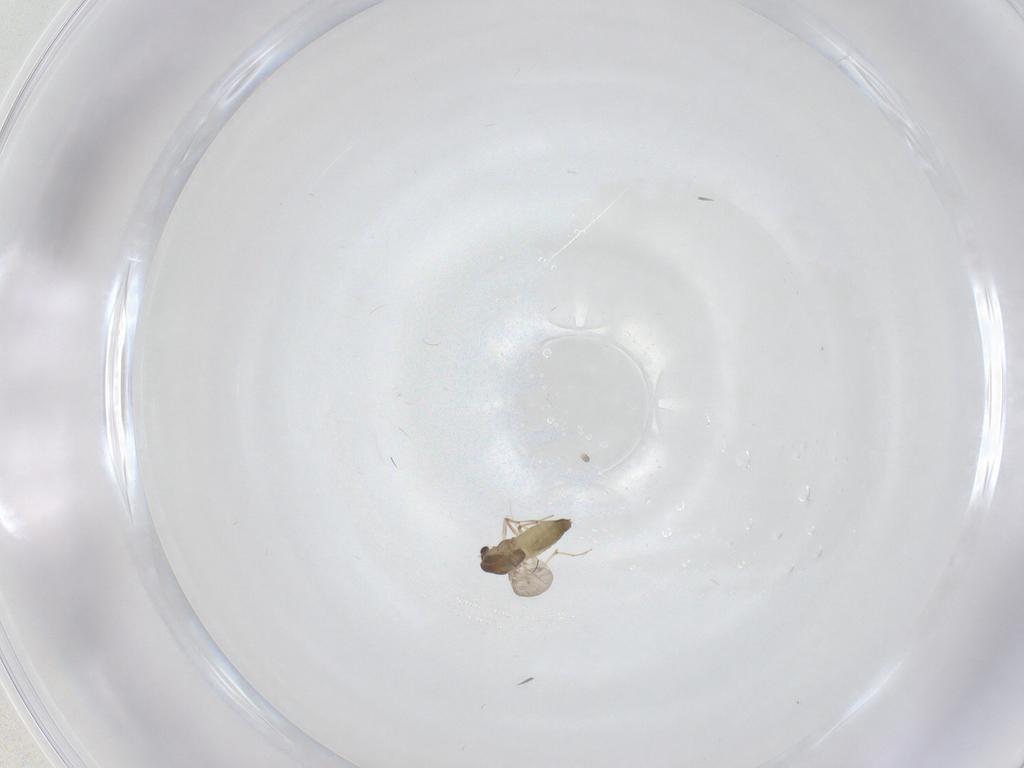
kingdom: Animalia
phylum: Arthropoda
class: Insecta
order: Diptera
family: Chironomidae
